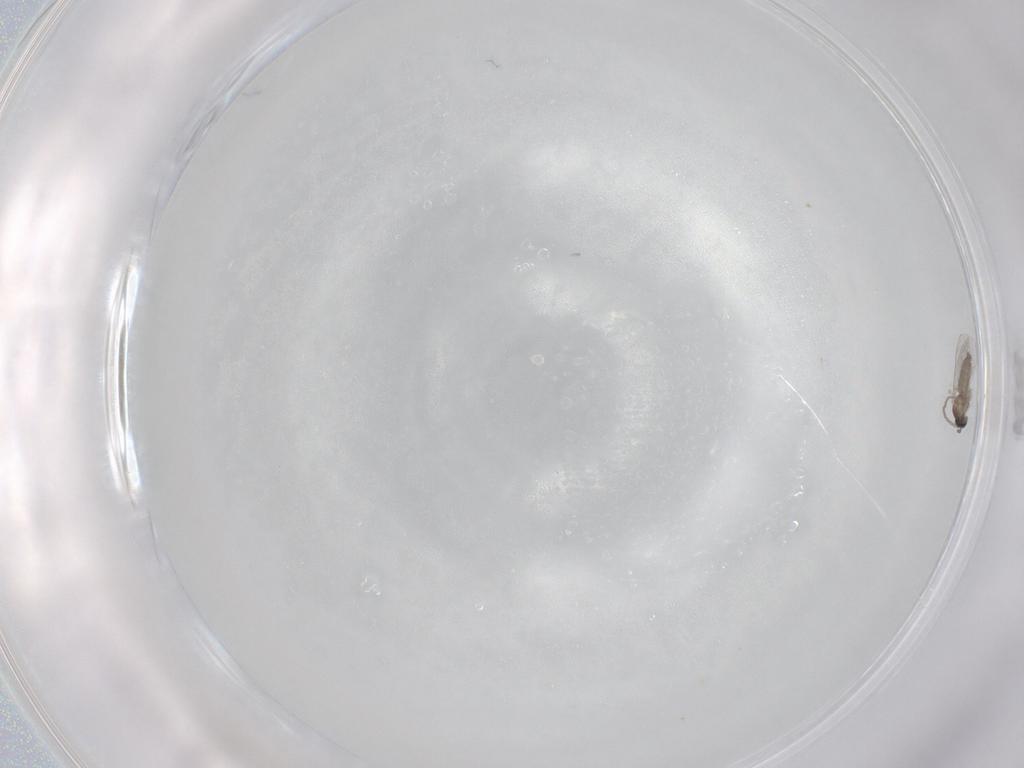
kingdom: Animalia
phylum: Arthropoda
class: Insecta
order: Diptera
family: Cecidomyiidae
